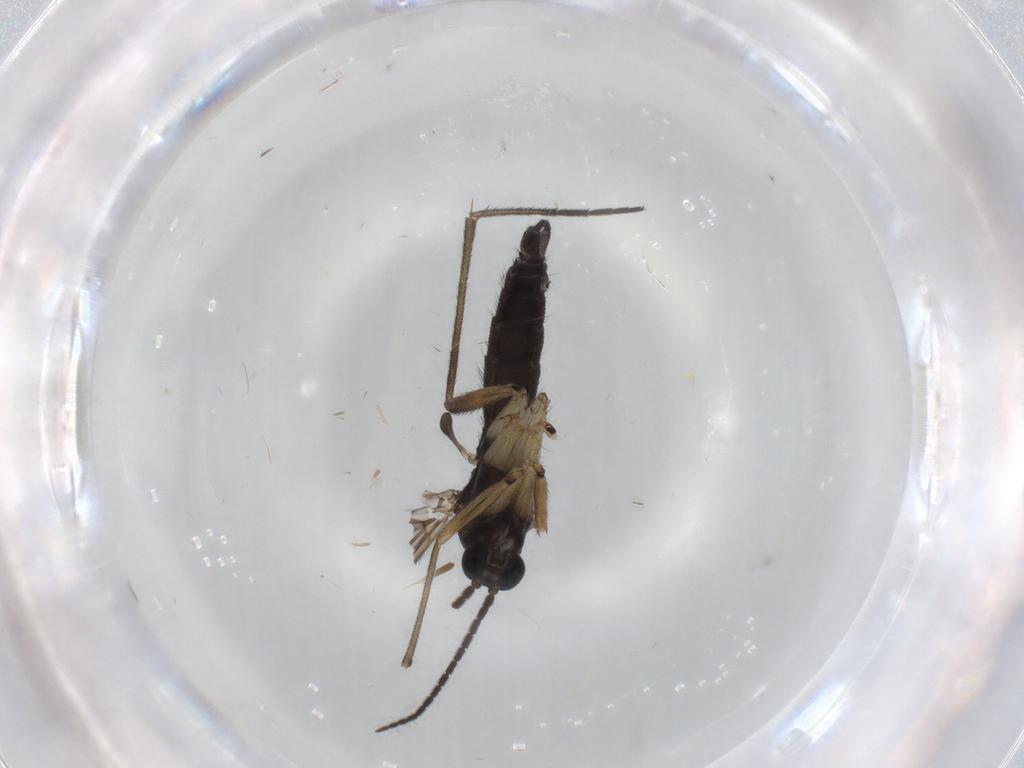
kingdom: Animalia
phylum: Arthropoda
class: Insecta
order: Diptera
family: Sciaridae
